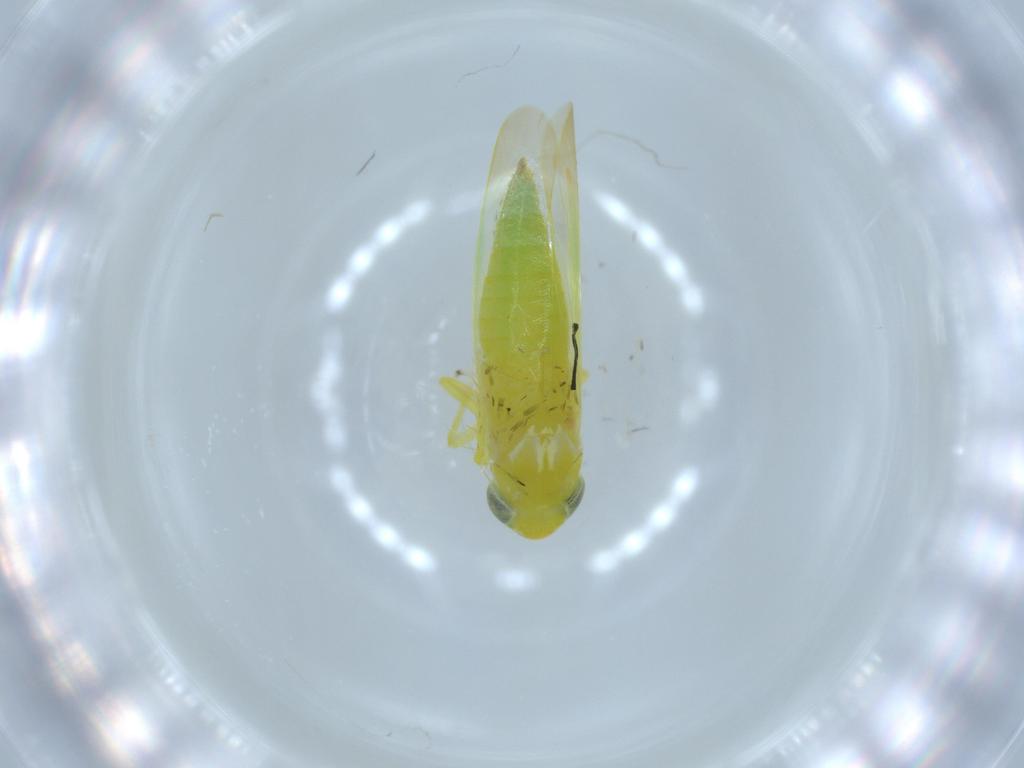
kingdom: Animalia
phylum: Arthropoda
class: Insecta
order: Hemiptera
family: Cicadellidae
